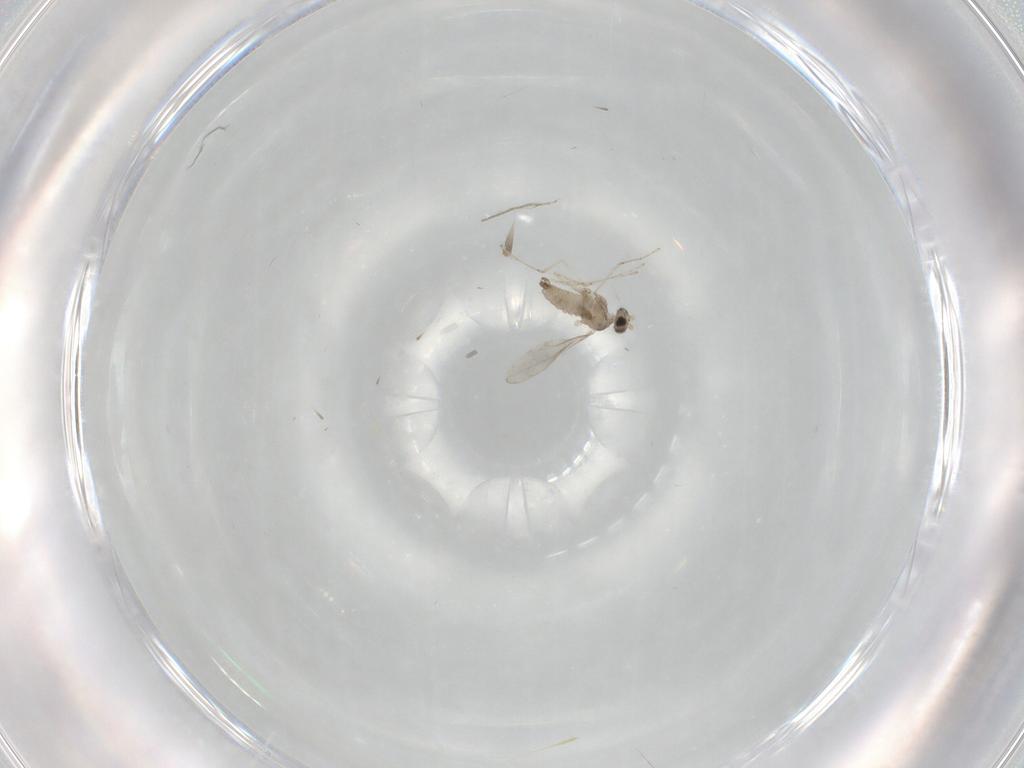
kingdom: Animalia
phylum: Arthropoda
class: Insecta
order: Diptera
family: Cecidomyiidae
